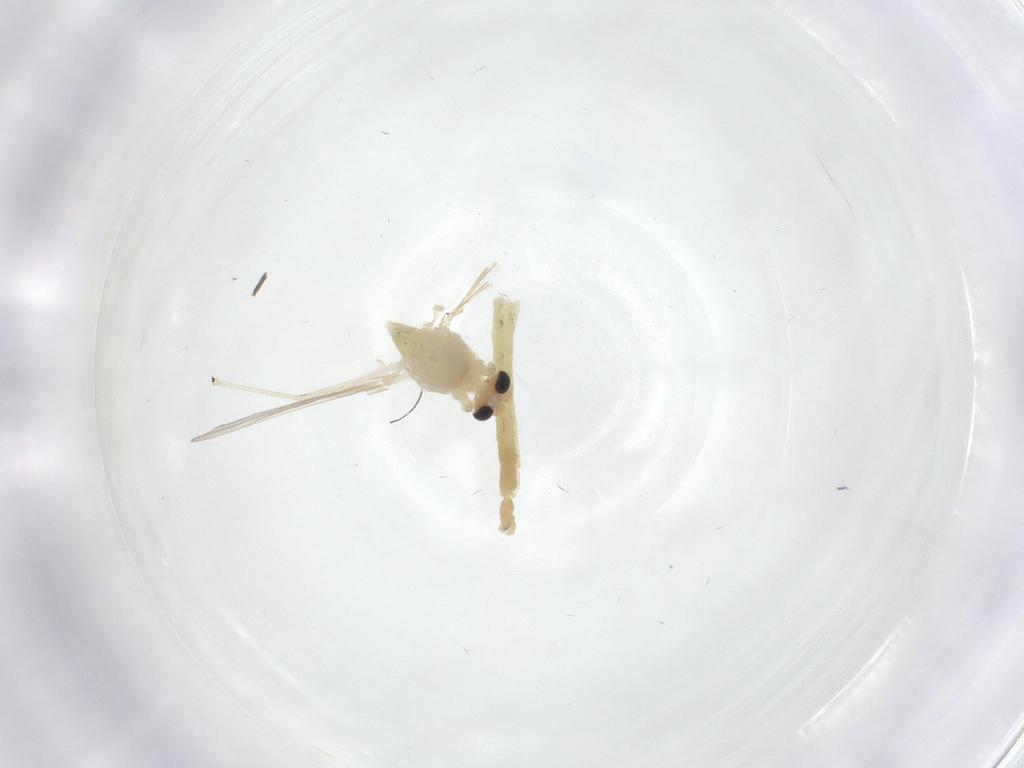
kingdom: Animalia
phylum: Arthropoda
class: Insecta
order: Diptera
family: Chironomidae
